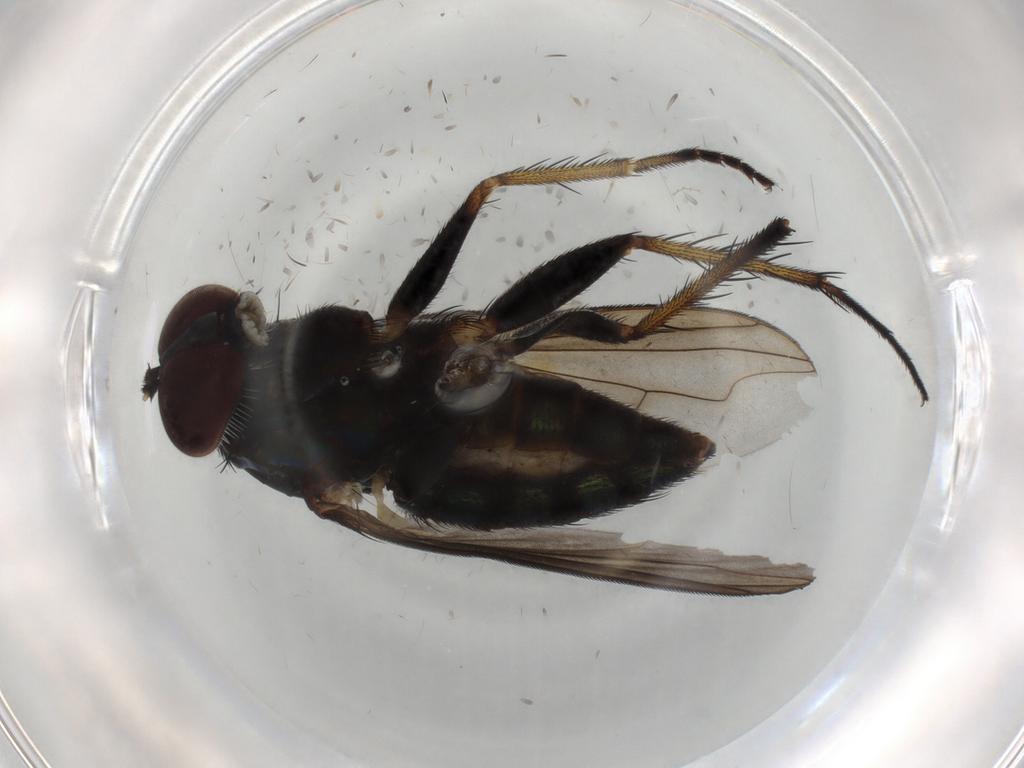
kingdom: Animalia
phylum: Arthropoda
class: Insecta
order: Diptera
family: Dolichopodidae
